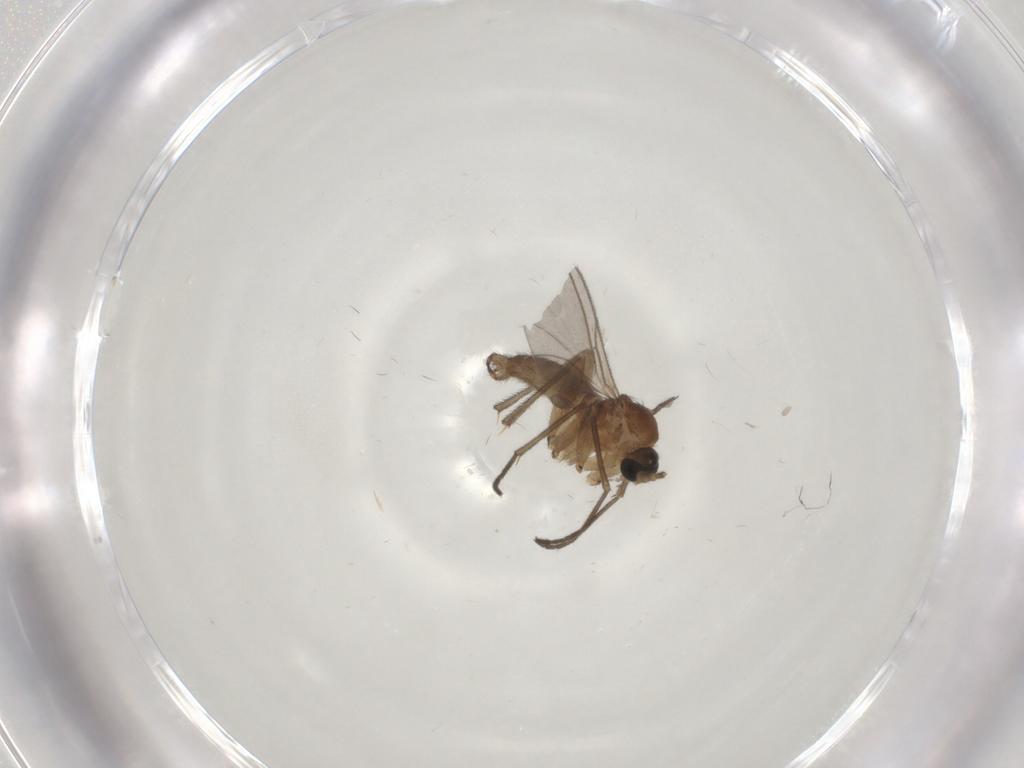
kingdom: Animalia
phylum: Arthropoda
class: Insecta
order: Diptera
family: Sciaridae
